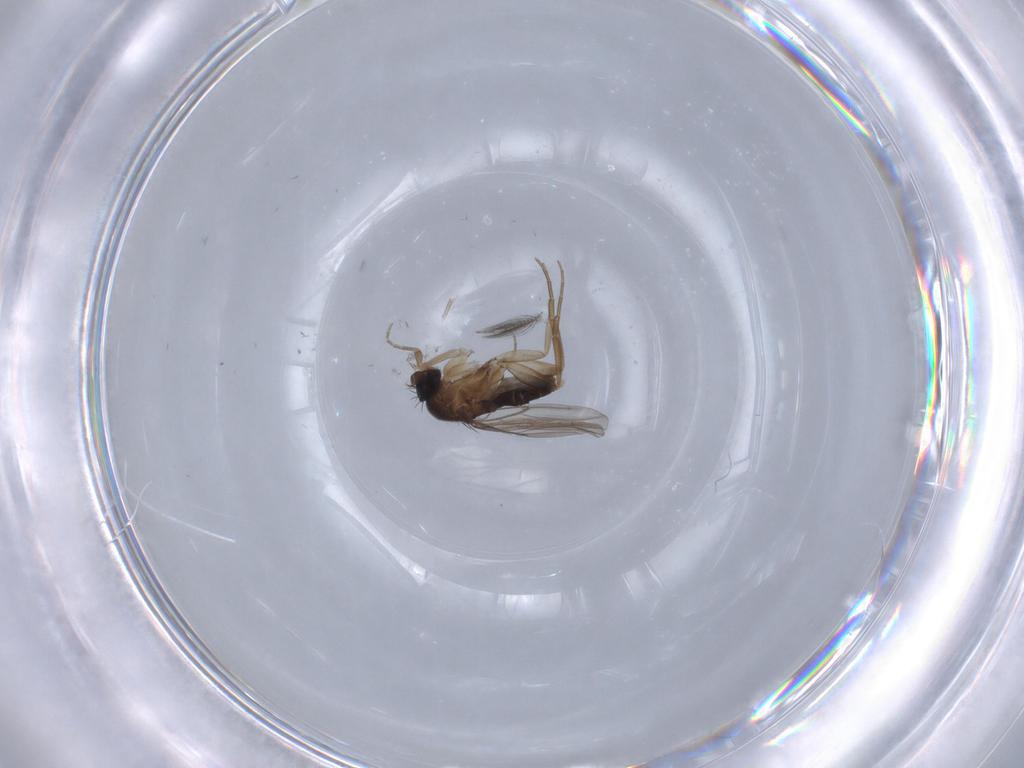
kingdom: Animalia
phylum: Arthropoda
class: Insecta
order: Diptera
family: Phoridae
